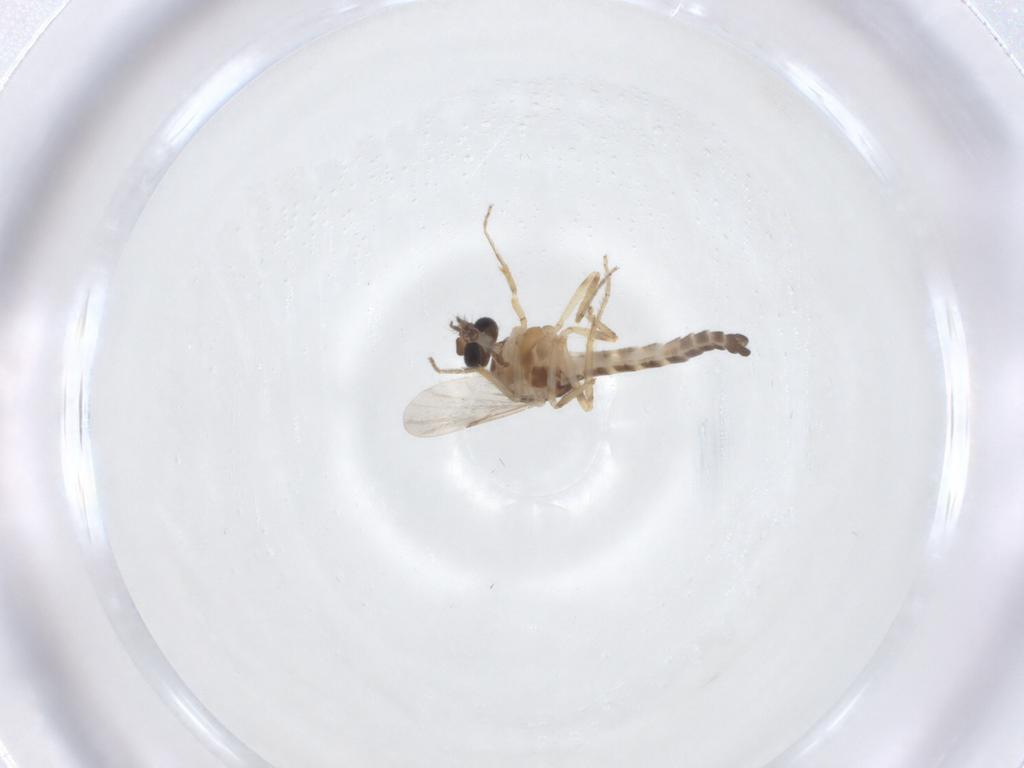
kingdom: Animalia
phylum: Arthropoda
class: Insecta
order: Diptera
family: Ceratopogonidae
